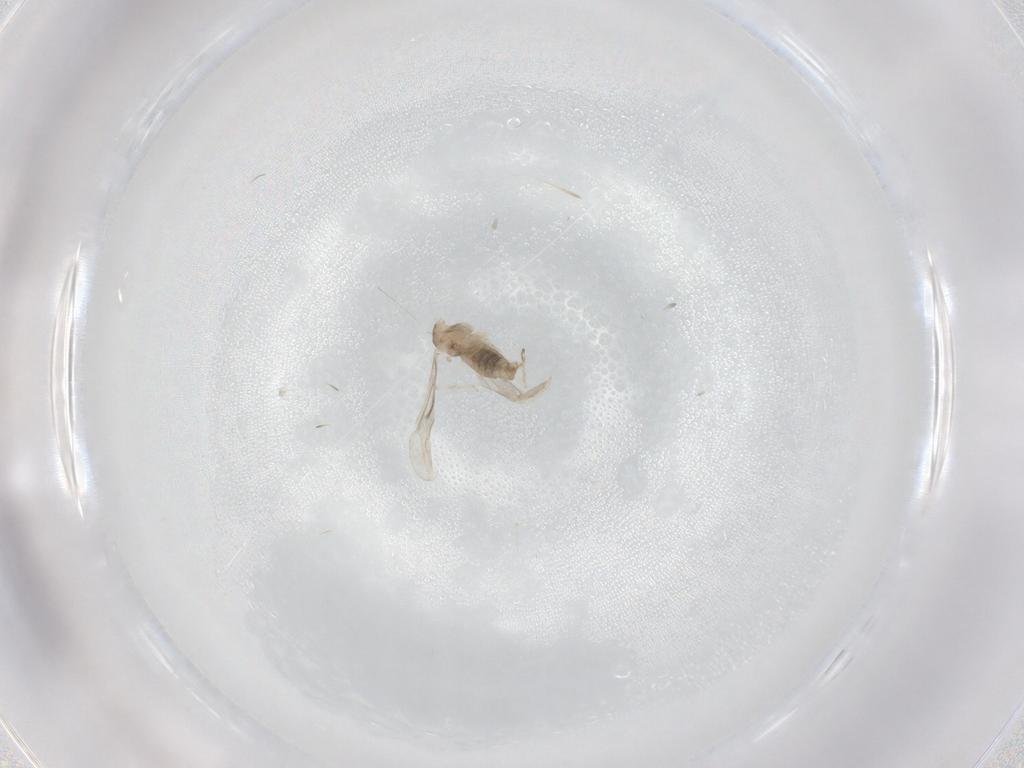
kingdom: Animalia
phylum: Arthropoda
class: Insecta
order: Diptera
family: Cecidomyiidae
